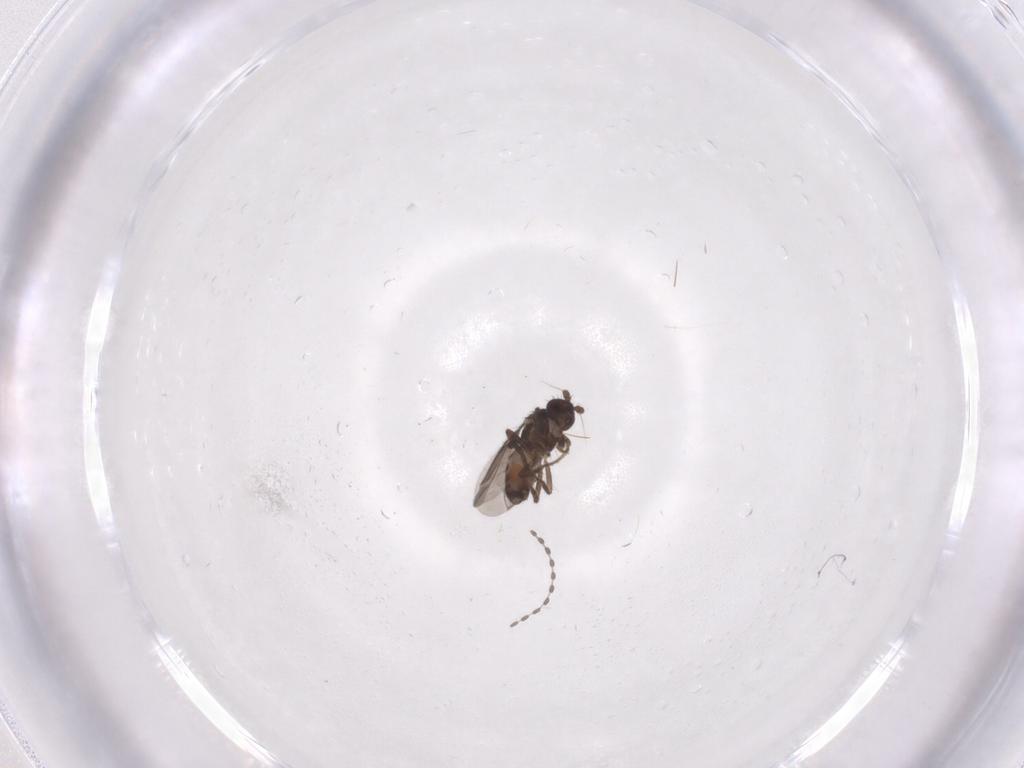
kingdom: Animalia
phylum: Arthropoda
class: Insecta
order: Diptera
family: Sphaeroceridae
